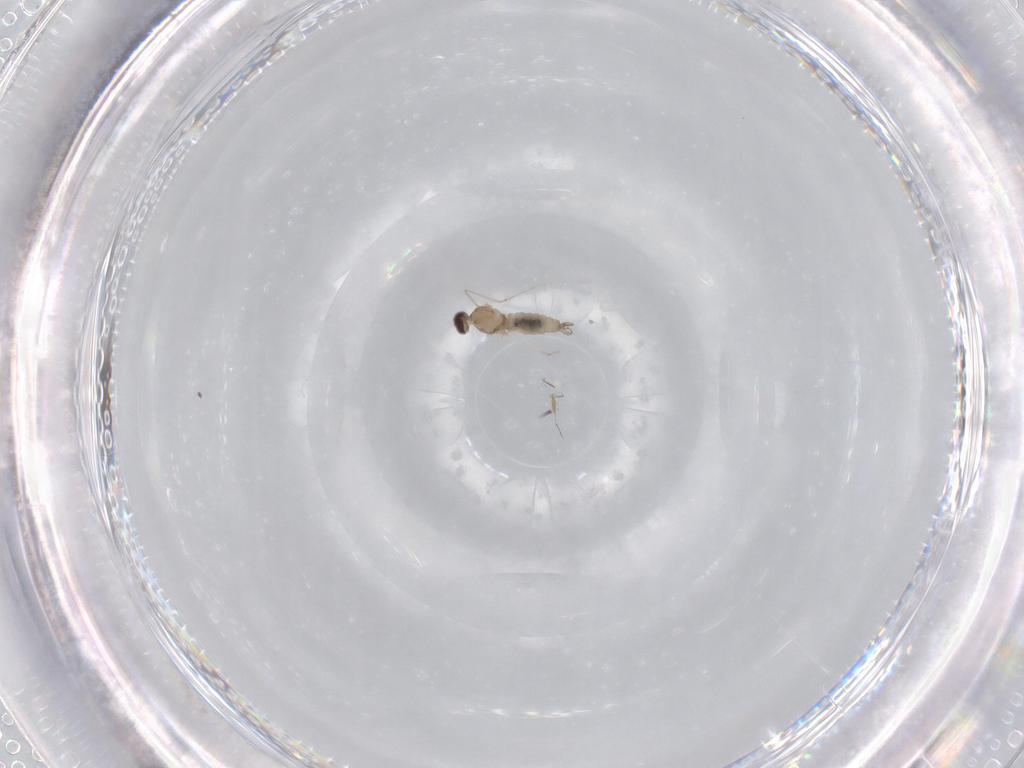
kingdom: Animalia
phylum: Arthropoda
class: Insecta
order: Diptera
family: Cecidomyiidae
